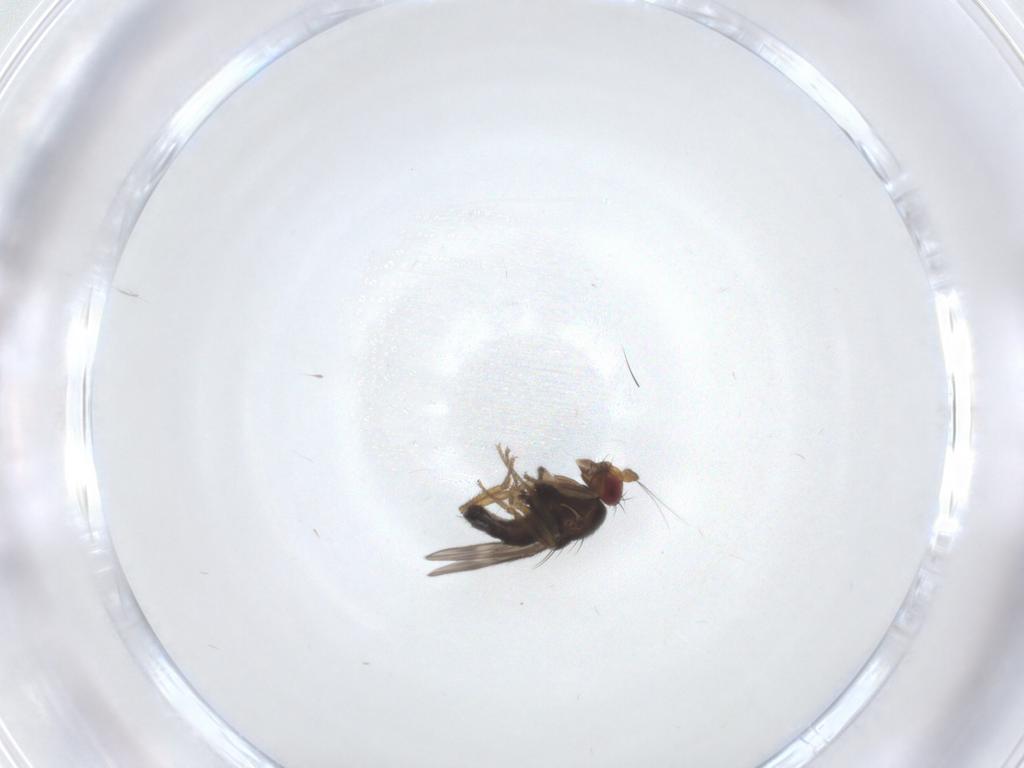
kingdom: Animalia
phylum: Arthropoda
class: Insecta
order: Diptera
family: Sphaeroceridae
